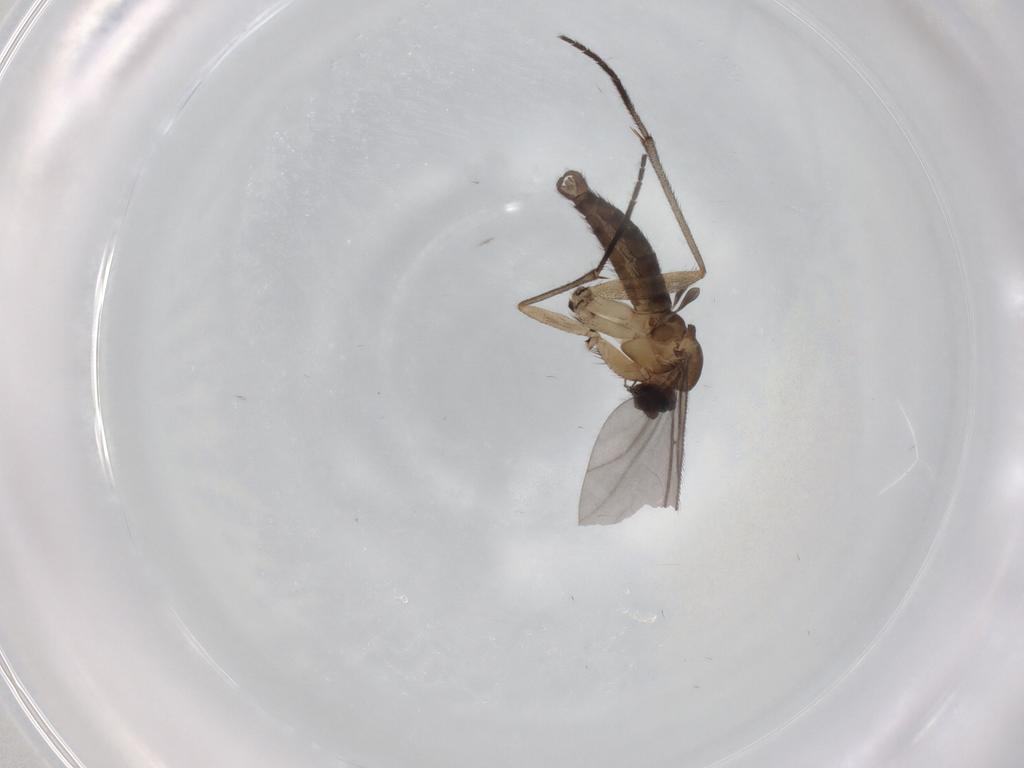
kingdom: Animalia
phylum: Arthropoda
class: Insecta
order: Diptera
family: Sciaridae
